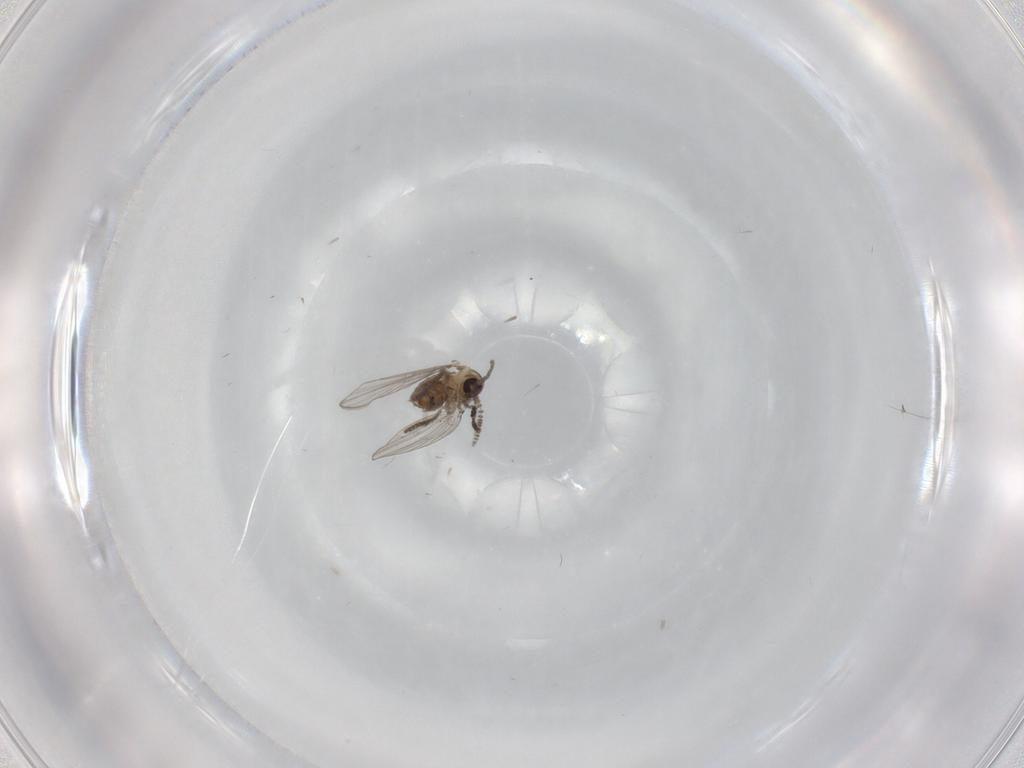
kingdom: Animalia
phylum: Arthropoda
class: Insecta
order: Diptera
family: Psychodidae
